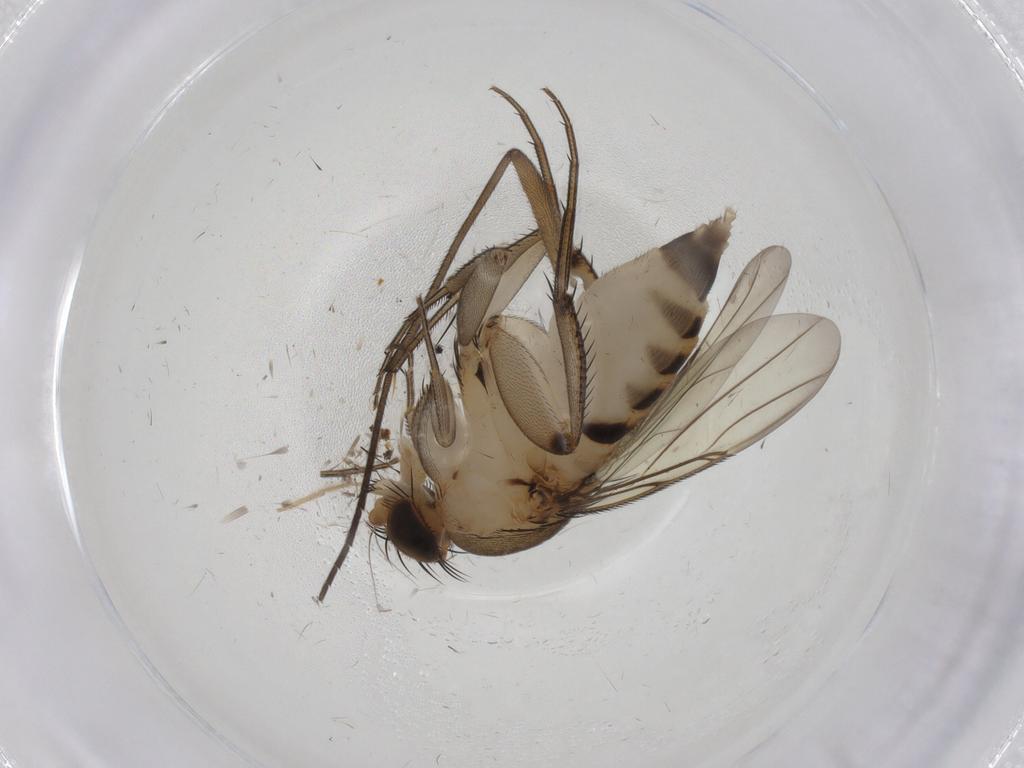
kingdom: Animalia
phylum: Arthropoda
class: Insecta
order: Diptera
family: Phoridae
